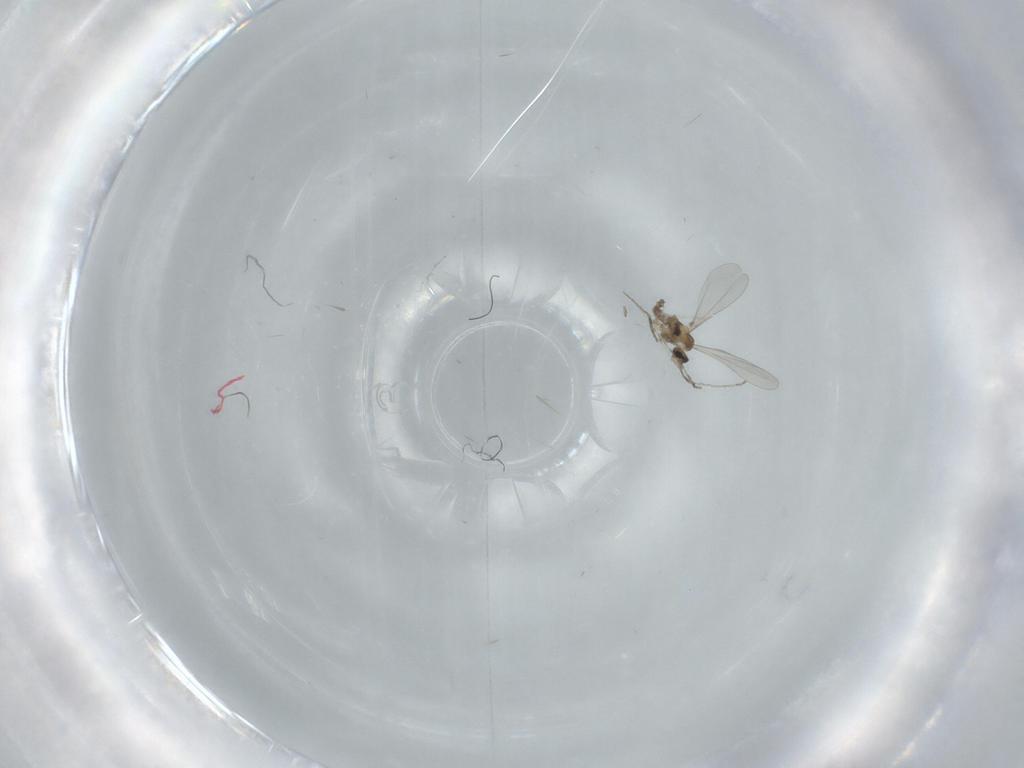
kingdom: Animalia
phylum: Arthropoda
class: Insecta
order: Diptera
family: Cecidomyiidae
